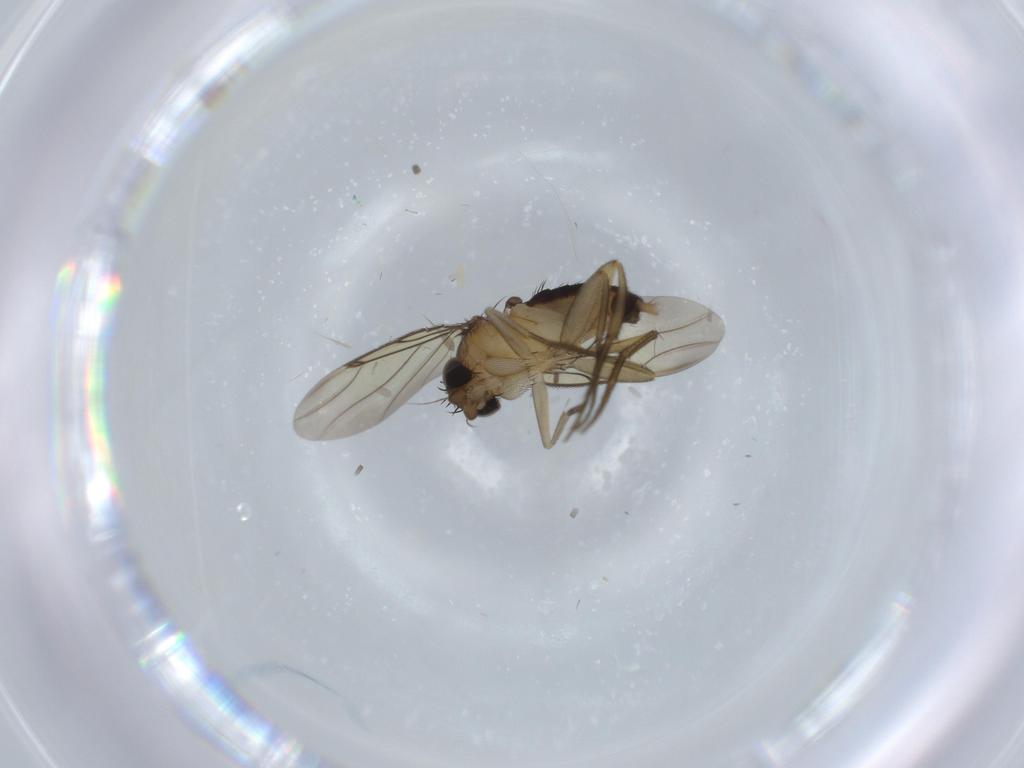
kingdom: Animalia
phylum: Arthropoda
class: Insecta
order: Diptera
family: Phoridae
